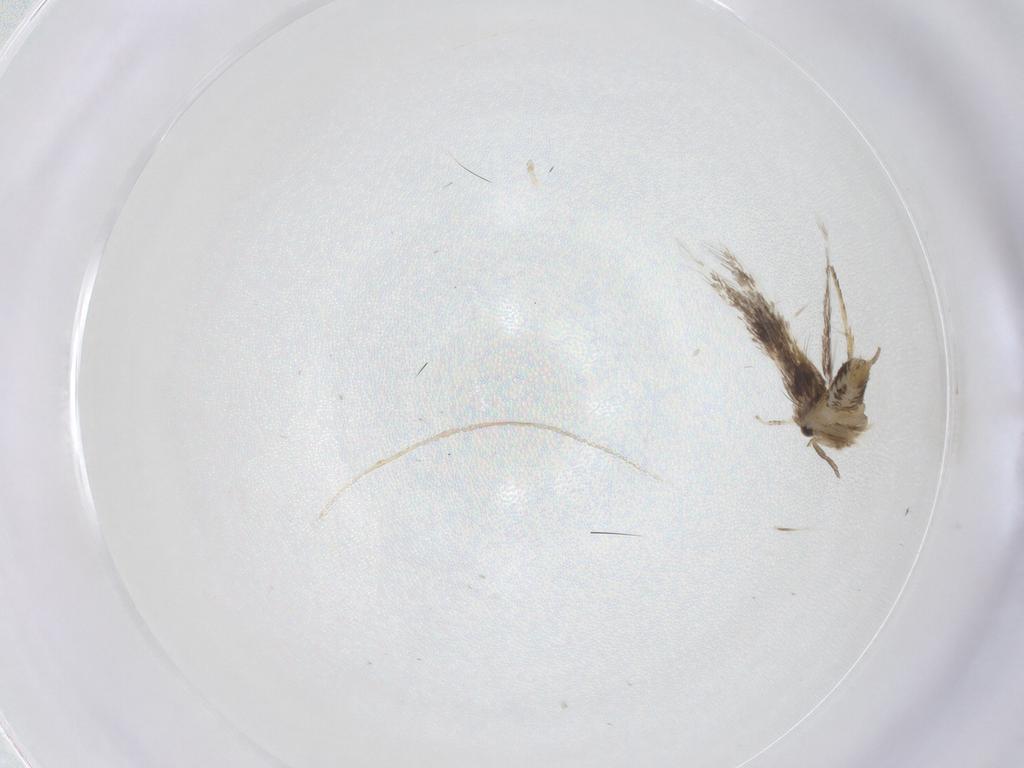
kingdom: Animalia
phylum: Arthropoda
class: Insecta
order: Lepidoptera
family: Nepticulidae
